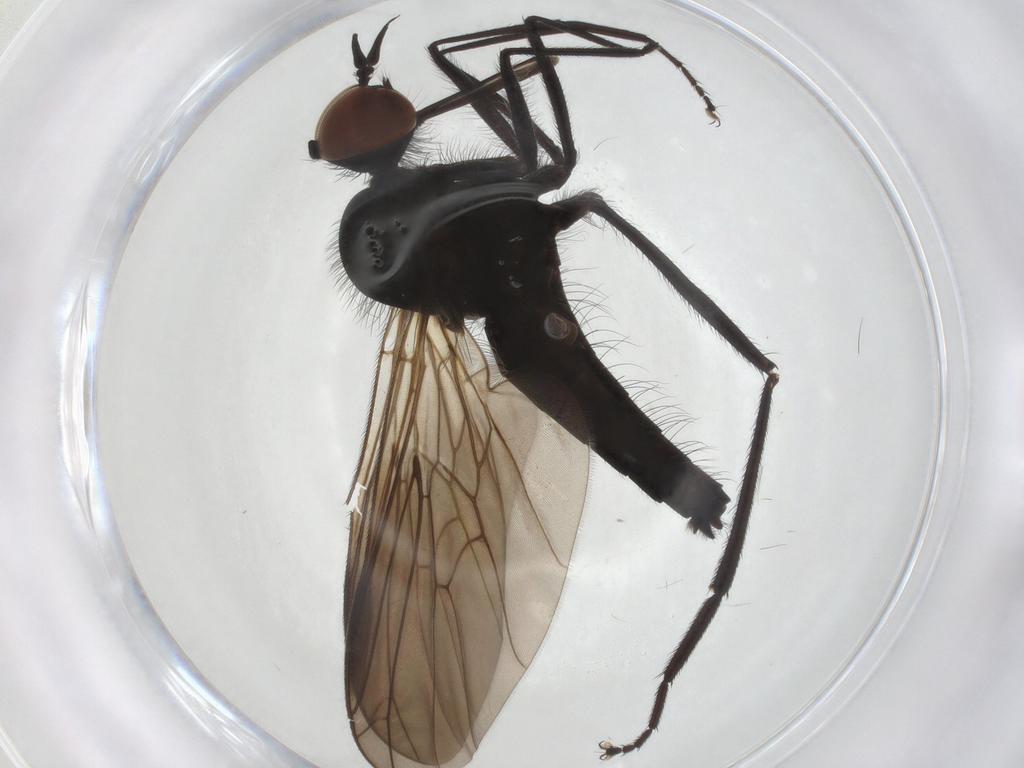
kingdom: Animalia
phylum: Arthropoda
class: Insecta
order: Diptera
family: Empididae
